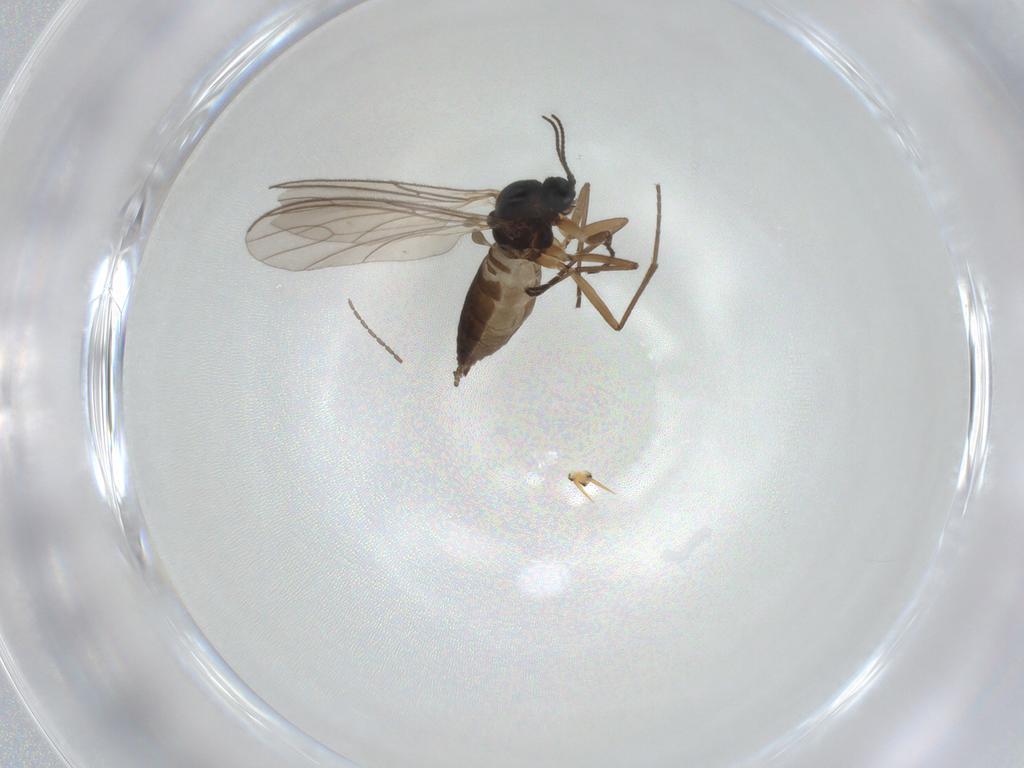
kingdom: Animalia
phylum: Arthropoda
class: Insecta
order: Diptera
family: Sciaridae
